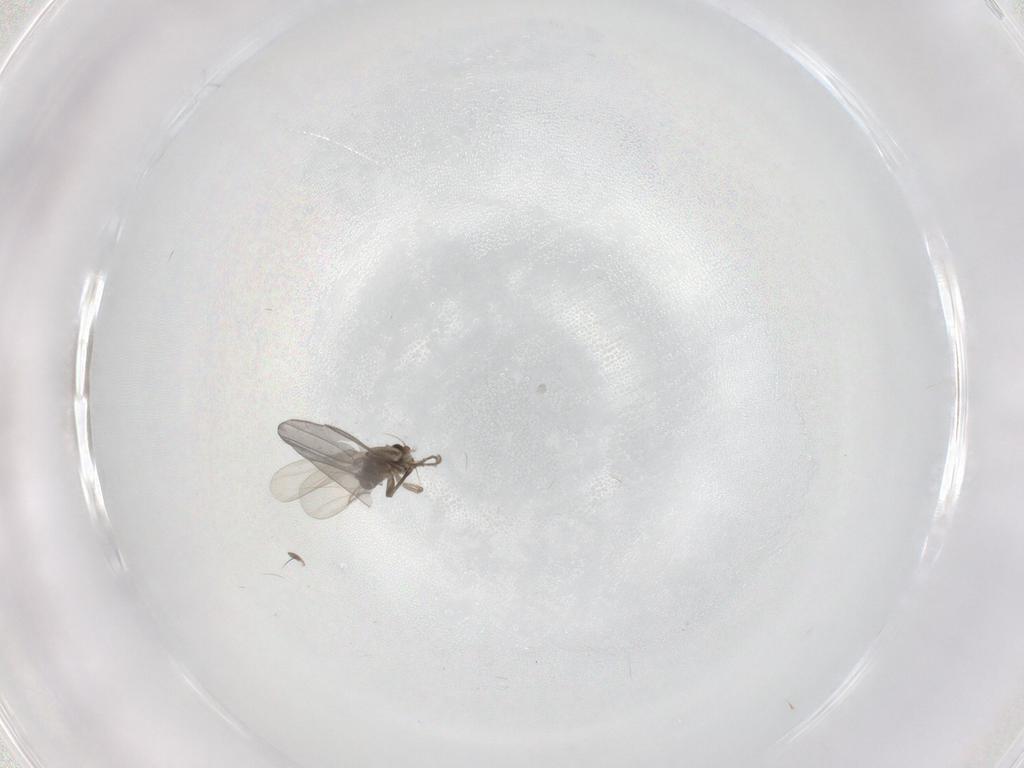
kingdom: Animalia
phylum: Arthropoda
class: Insecta
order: Diptera
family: Phoridae
